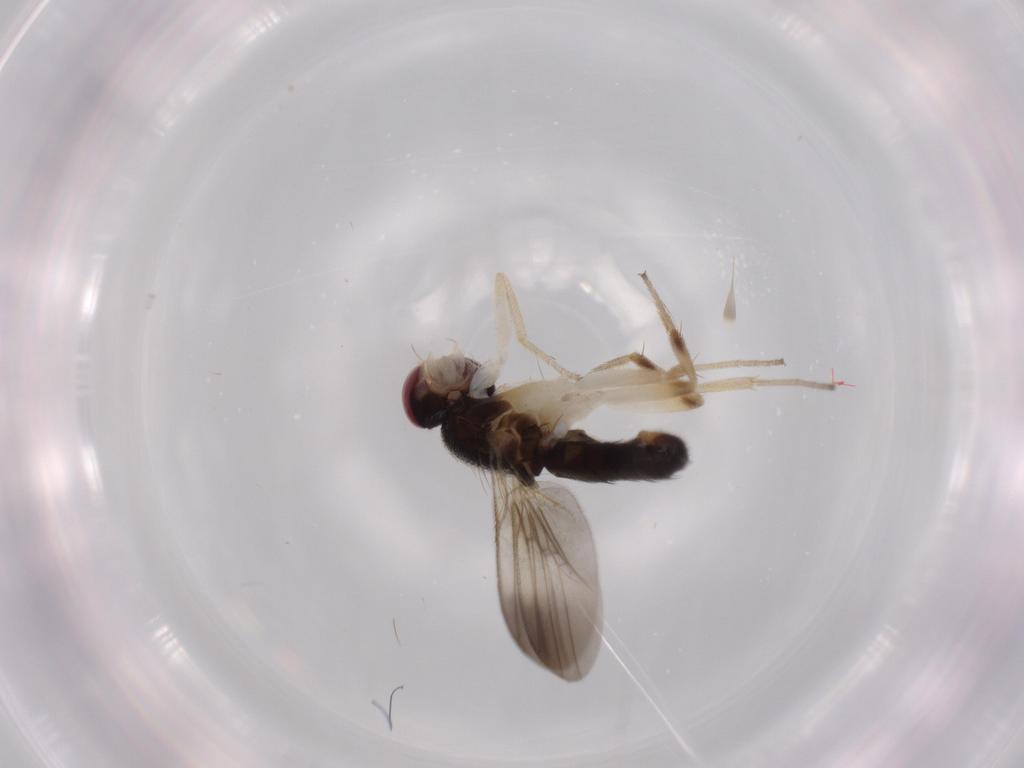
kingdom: Animalia
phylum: Arthropoda
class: Insecta
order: Diptera
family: Clusiidae
